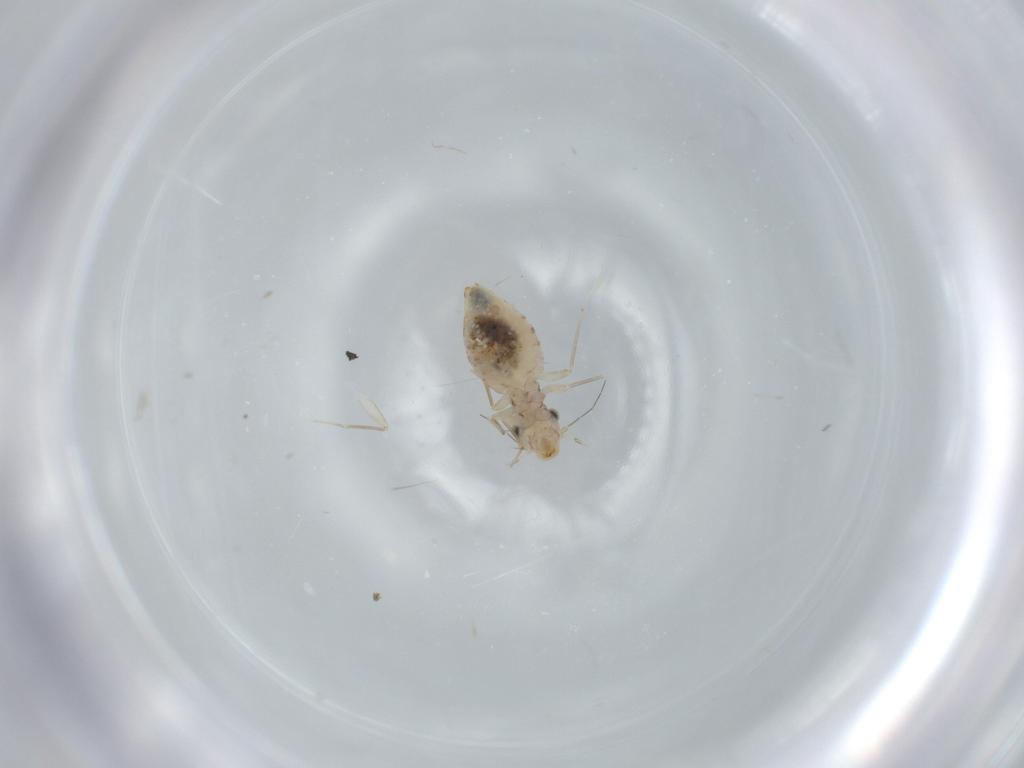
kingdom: Animalia
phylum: Arthropoda
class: Insecta
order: Psocodea
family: Lepidopsocidae
